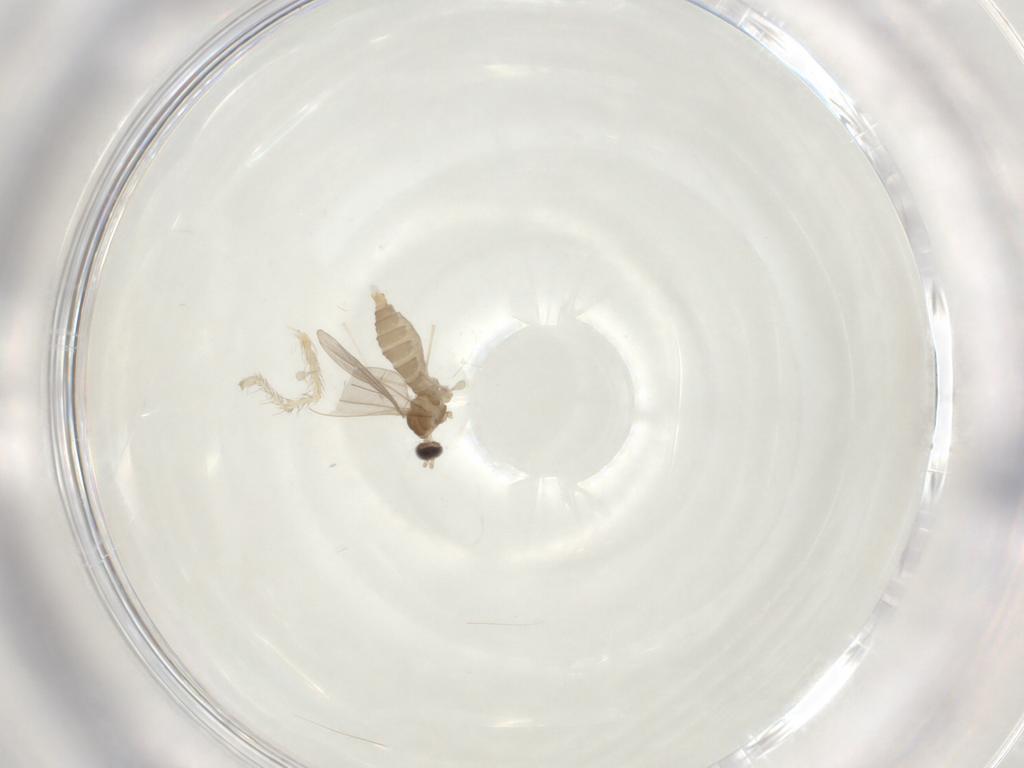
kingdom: Animalia
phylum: Arthropoda
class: Insecta
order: Diptera
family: Cecidomyiidae
